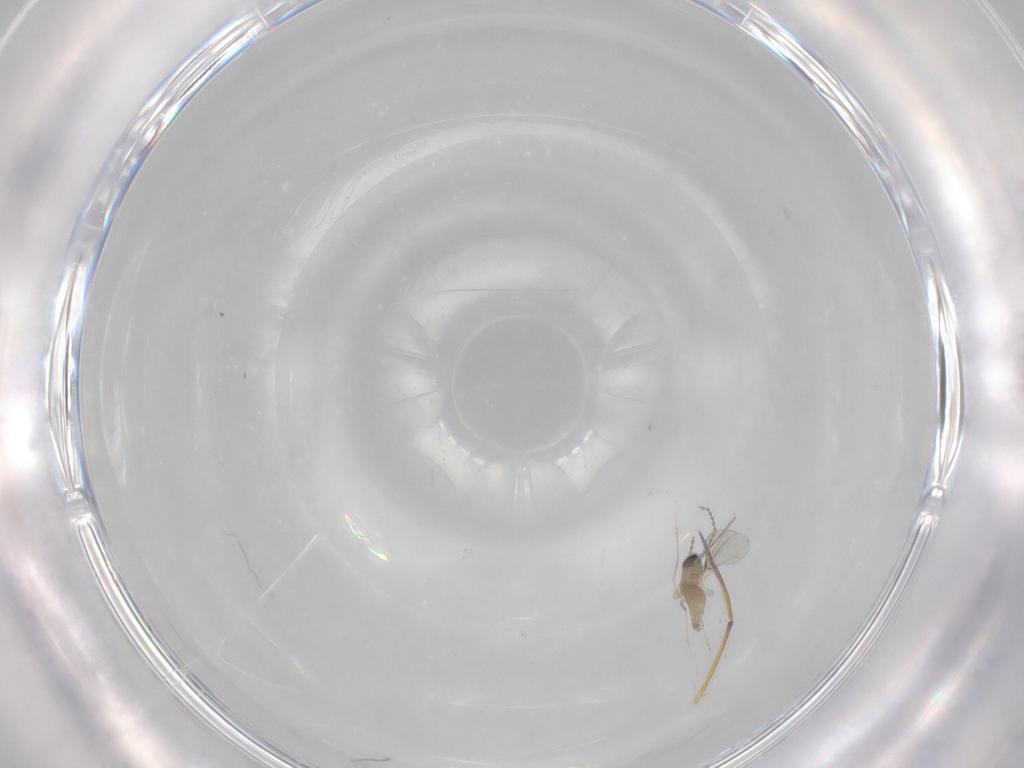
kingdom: Animalia
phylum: Arthropoda
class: Insecta
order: Diptera
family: Cecidomyiidae
